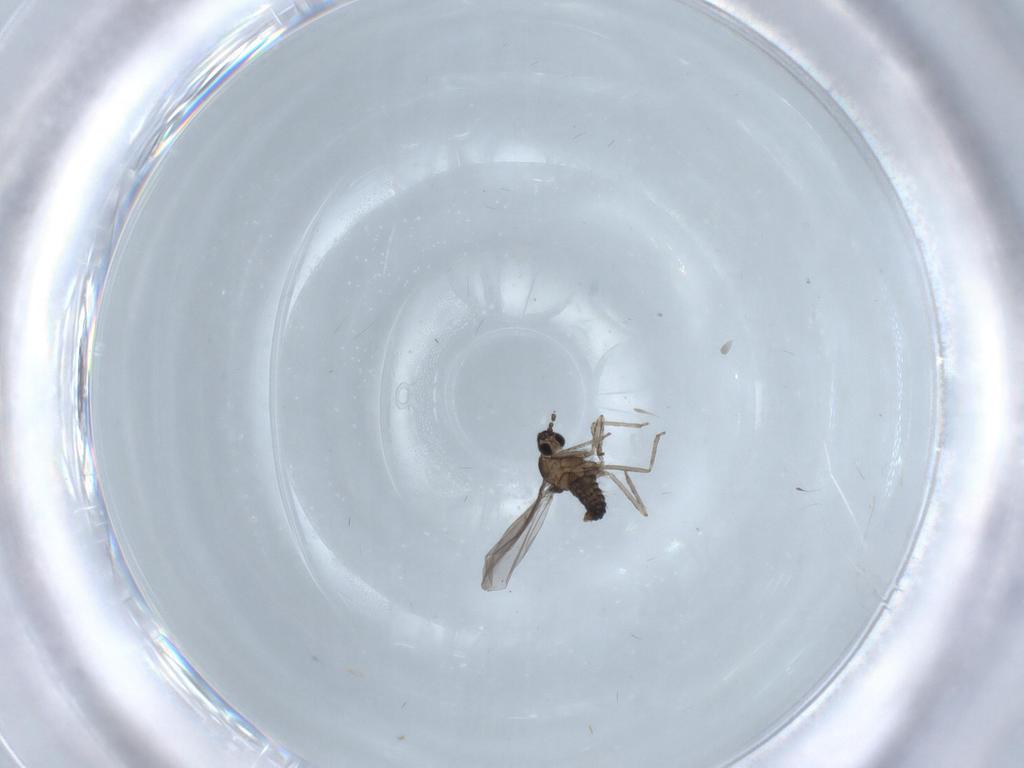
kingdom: Animalia
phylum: Arthropoda
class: Insecta
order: Diptera
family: Cecidomyiidae
